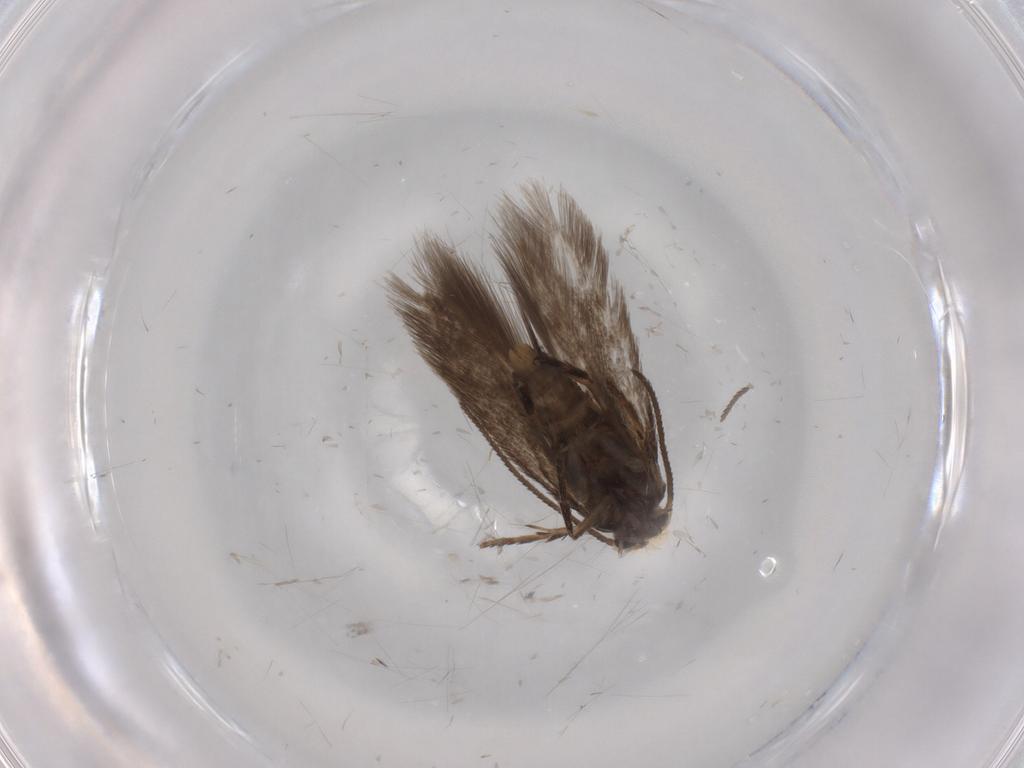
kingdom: Animalia
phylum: Arthropoda
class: Insecta
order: Lepidoptera
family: Nepticulidae
